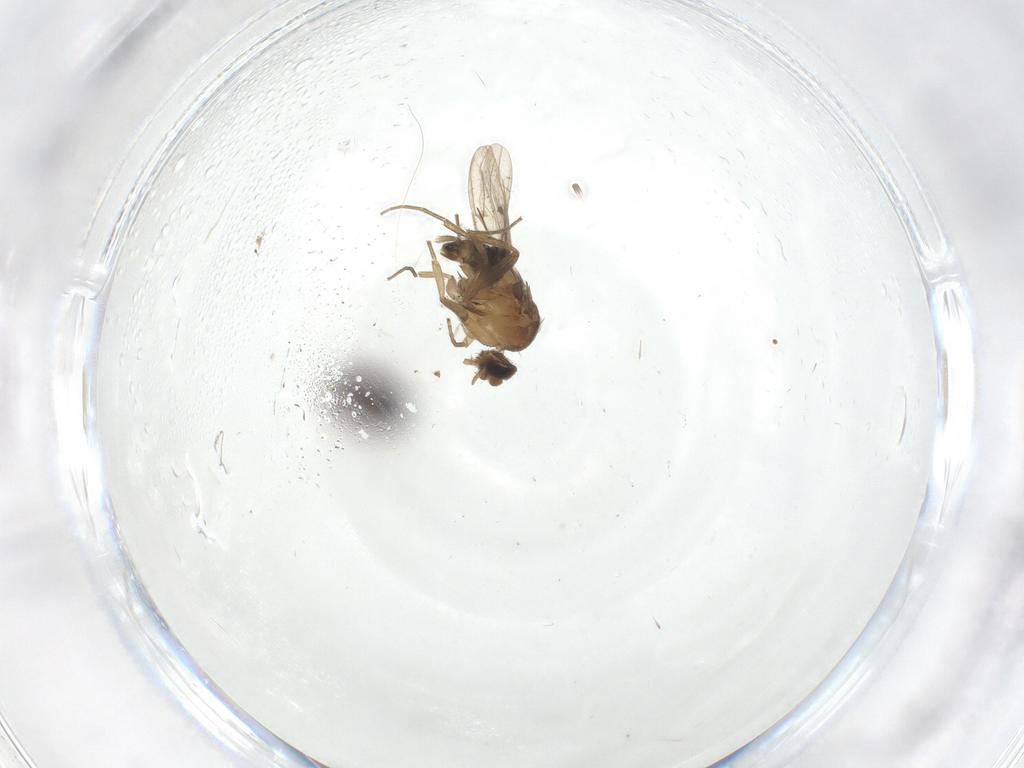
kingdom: Animalia
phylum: Arthropoda
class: Insecta
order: Diptera
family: Phoridae
